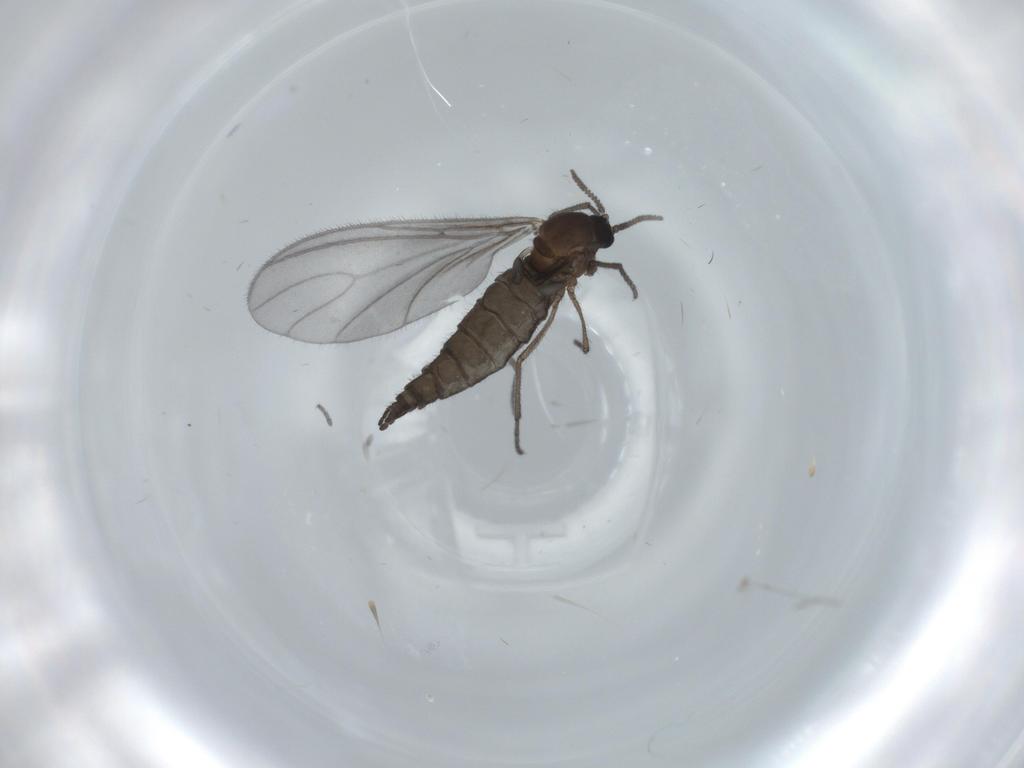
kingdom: Animalia
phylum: Arthropoda
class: Insecta
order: Diptera
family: Sciaridae
